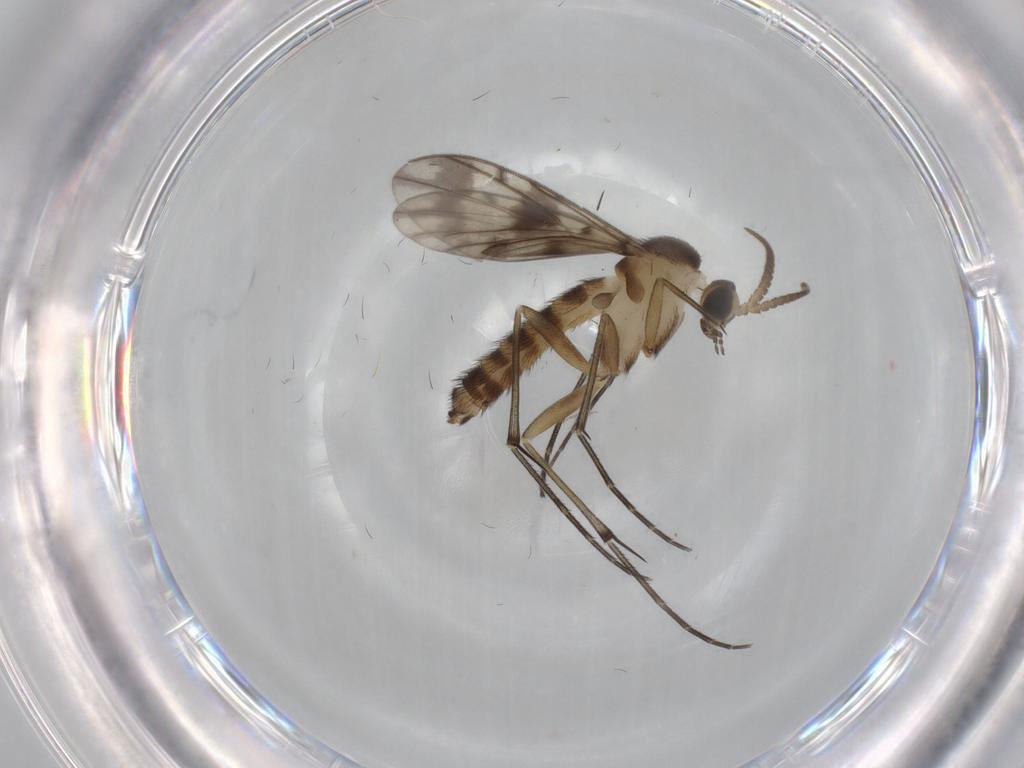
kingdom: Animalia
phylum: Arthropoda
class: Insecta
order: Diptera
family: Keroplatidae
